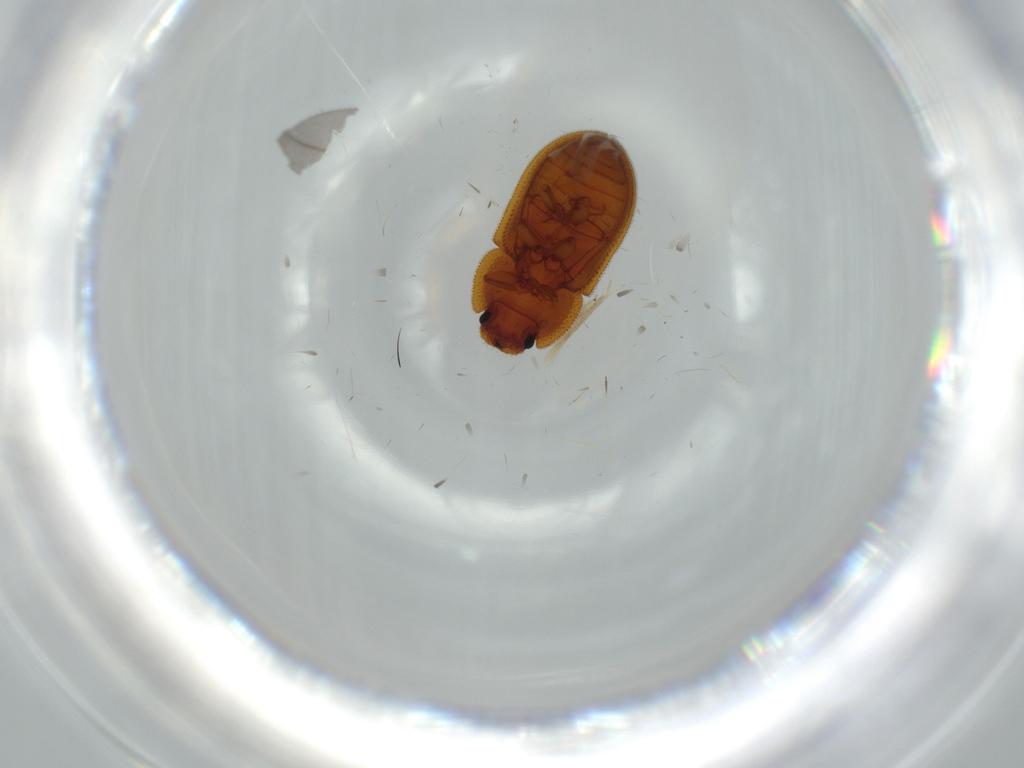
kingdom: Animalia
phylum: Arthropoda
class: Insecta
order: Coleoptera
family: Zopheridae
